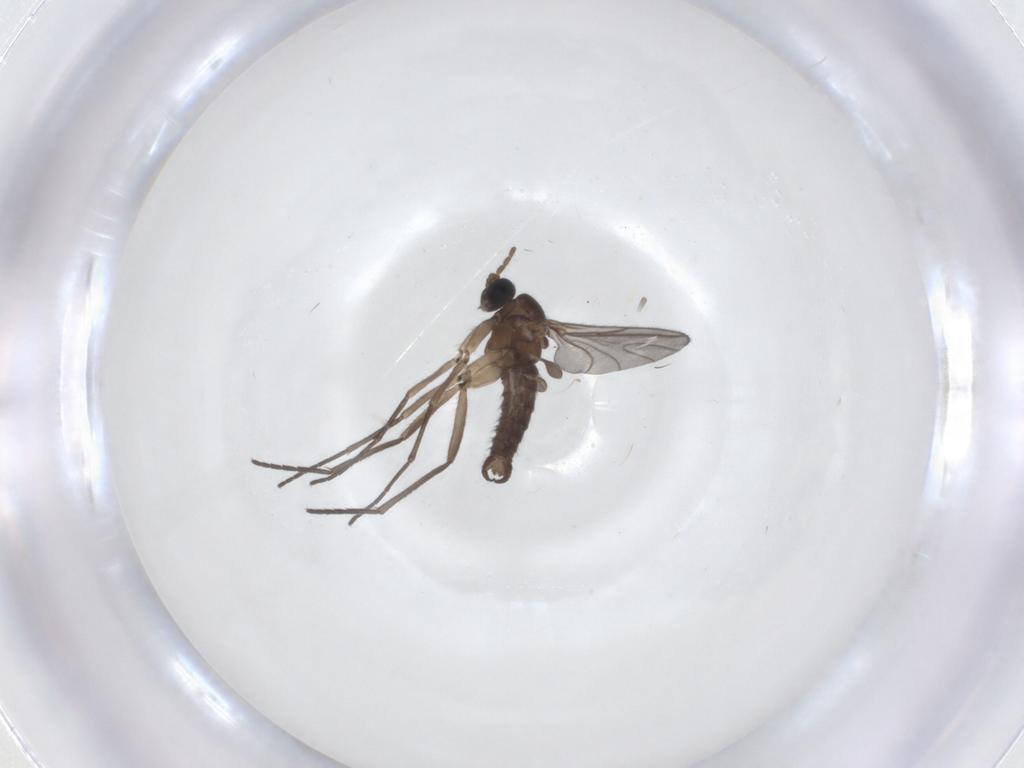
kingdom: Animalia
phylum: Arthropoda
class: Insecta
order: Diptera
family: Sciaridae
